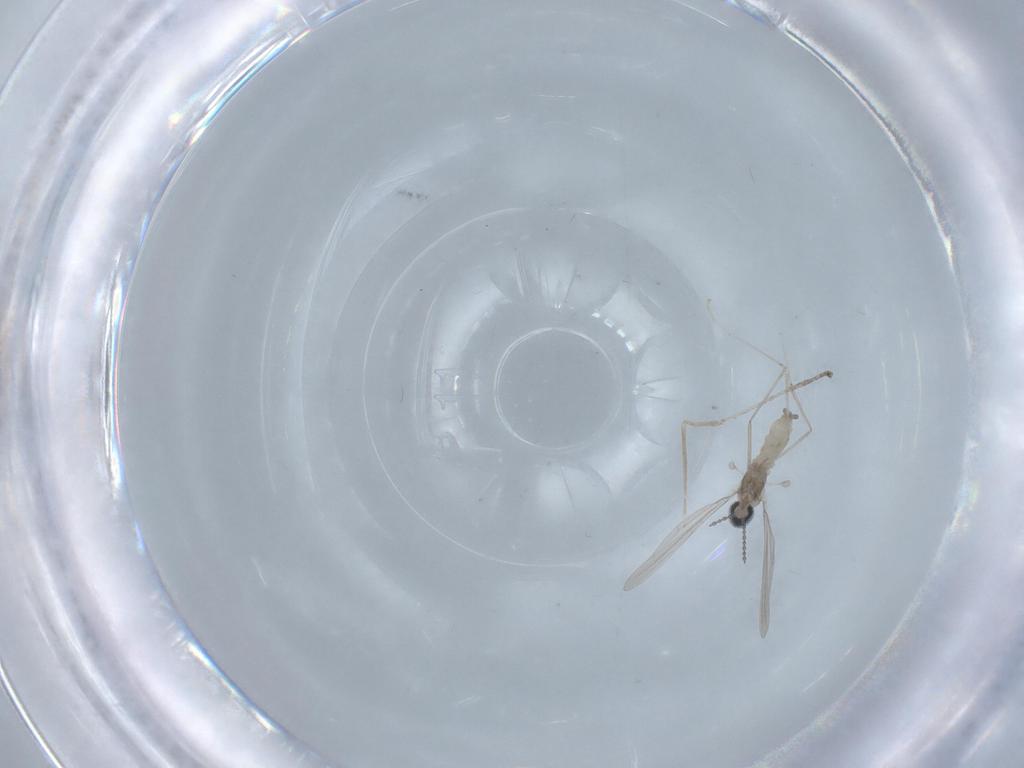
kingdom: Animalia
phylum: Arthropoda
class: Insecta
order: Diptera
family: Cecidomyiidae
